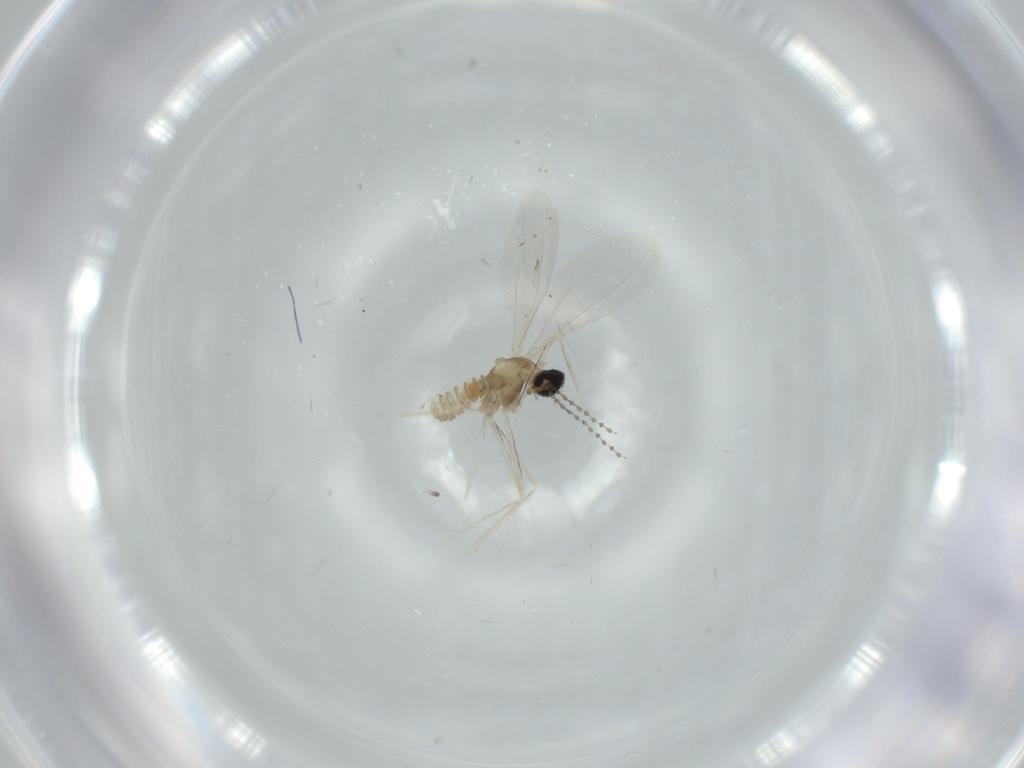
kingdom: Animalia
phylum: Arthropoda
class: Insecta
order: Diptera
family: Cecidomyiidae
